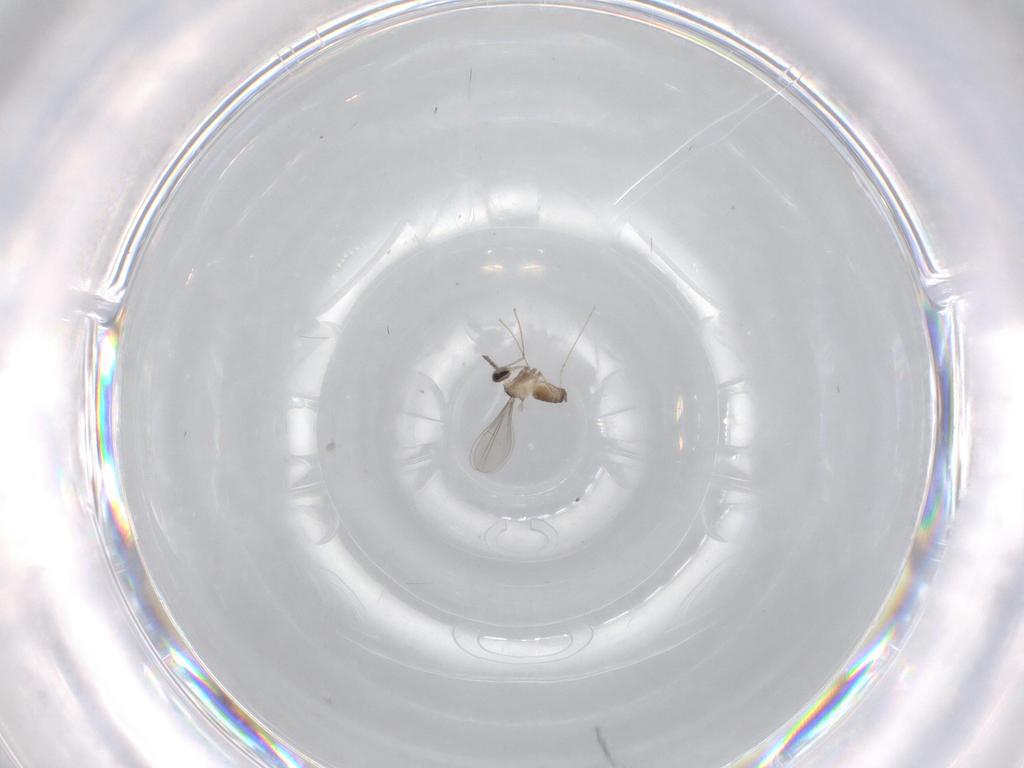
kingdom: Animalia
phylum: Arthropoda
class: Insecta
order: Diptera
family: Cecidomyiidae
